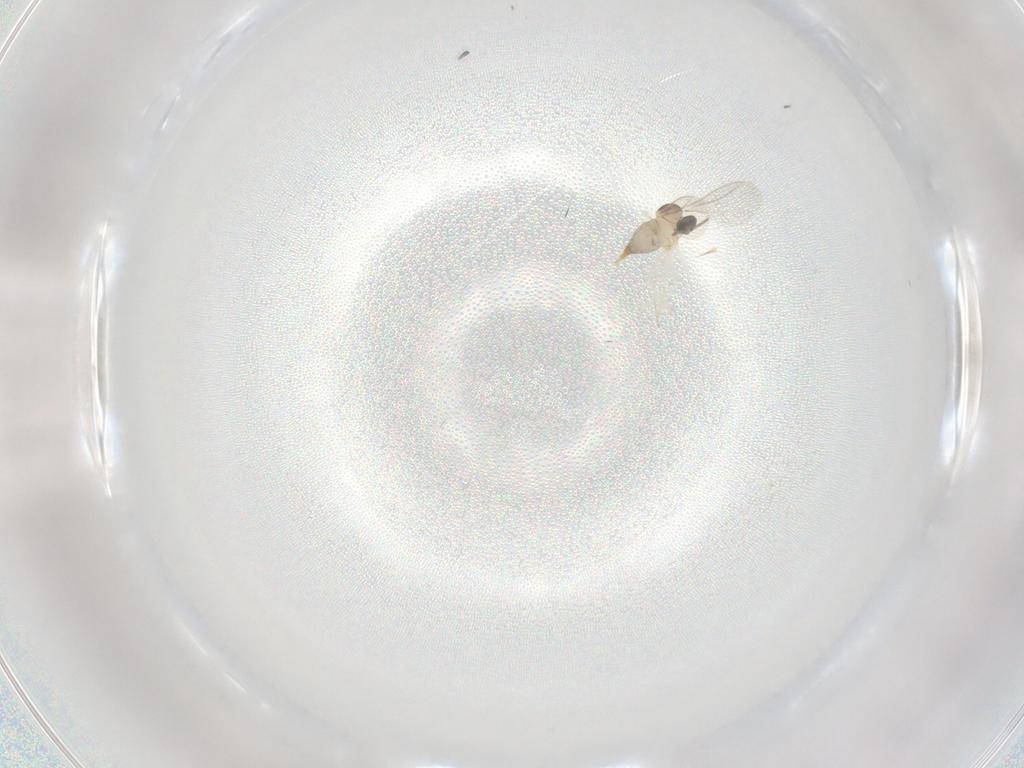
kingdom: Animalia
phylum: Arthropoda
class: Insecta
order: Diptera
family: Cecidomyiidae
